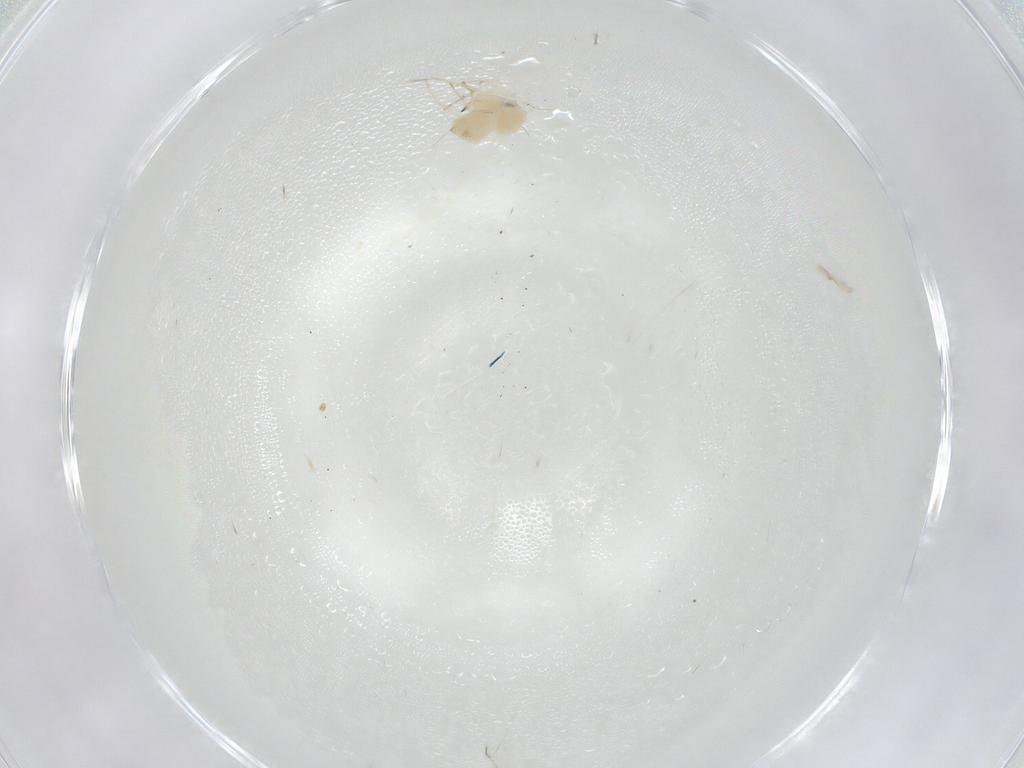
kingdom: Animalia
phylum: Arthropoda
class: Insecta
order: Hemiptera
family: Aleyrodidae
